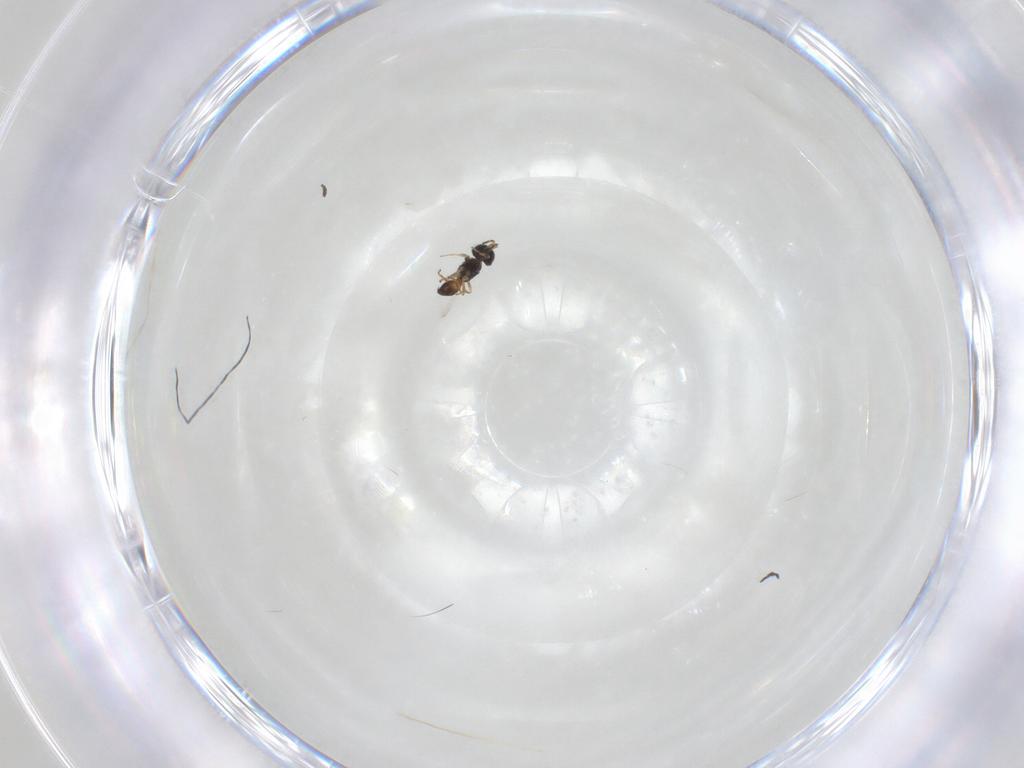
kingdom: Animalia
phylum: Arthropoda
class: Insecta
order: Hymenoptera
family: Scelionidae
